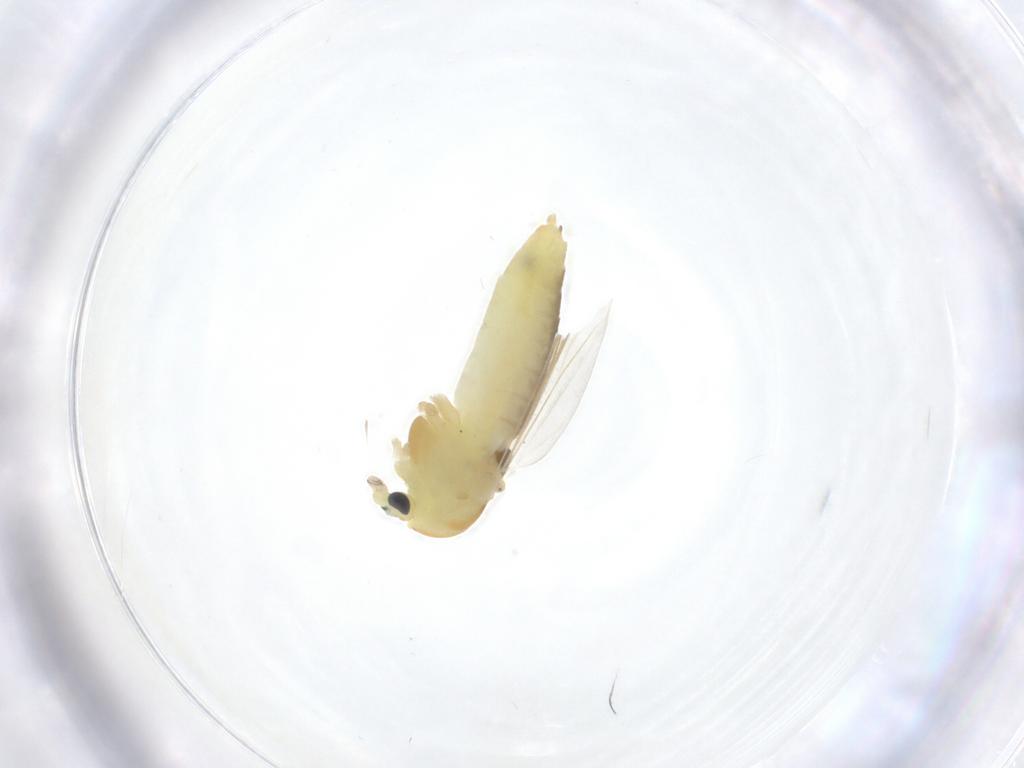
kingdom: Animalia
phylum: Arthropoda
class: Insecta
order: Diptera
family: Chironomidae
